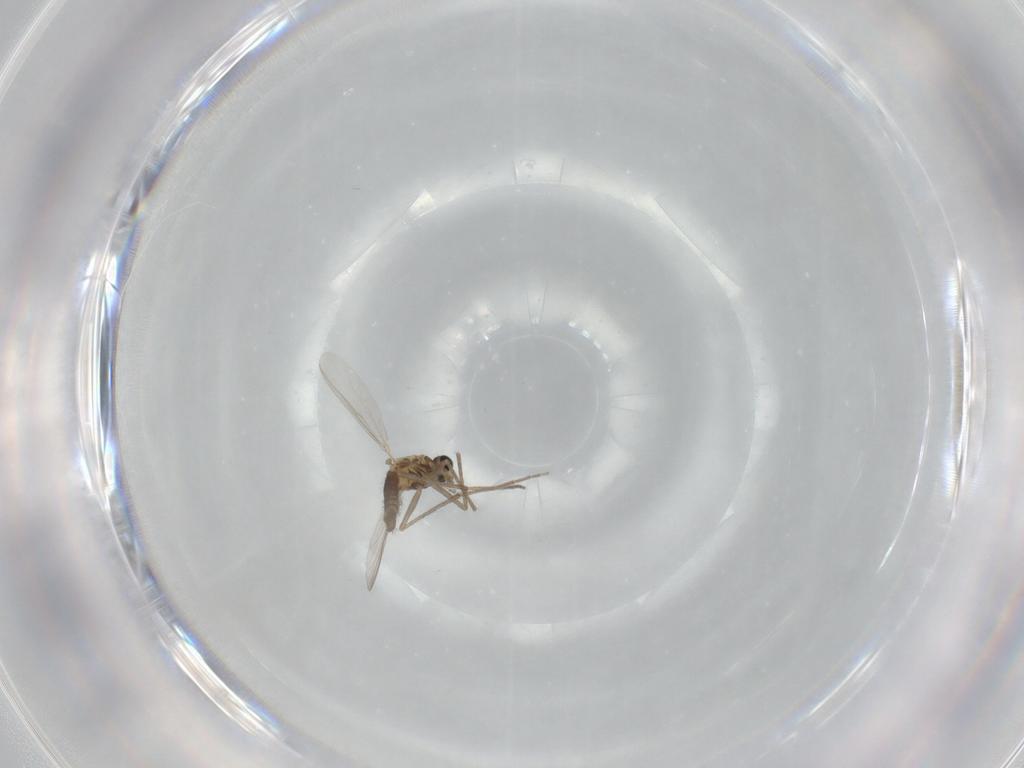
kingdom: Animalia
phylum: Arthropoda
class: Insecta
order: Diptera
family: Chironomidae
